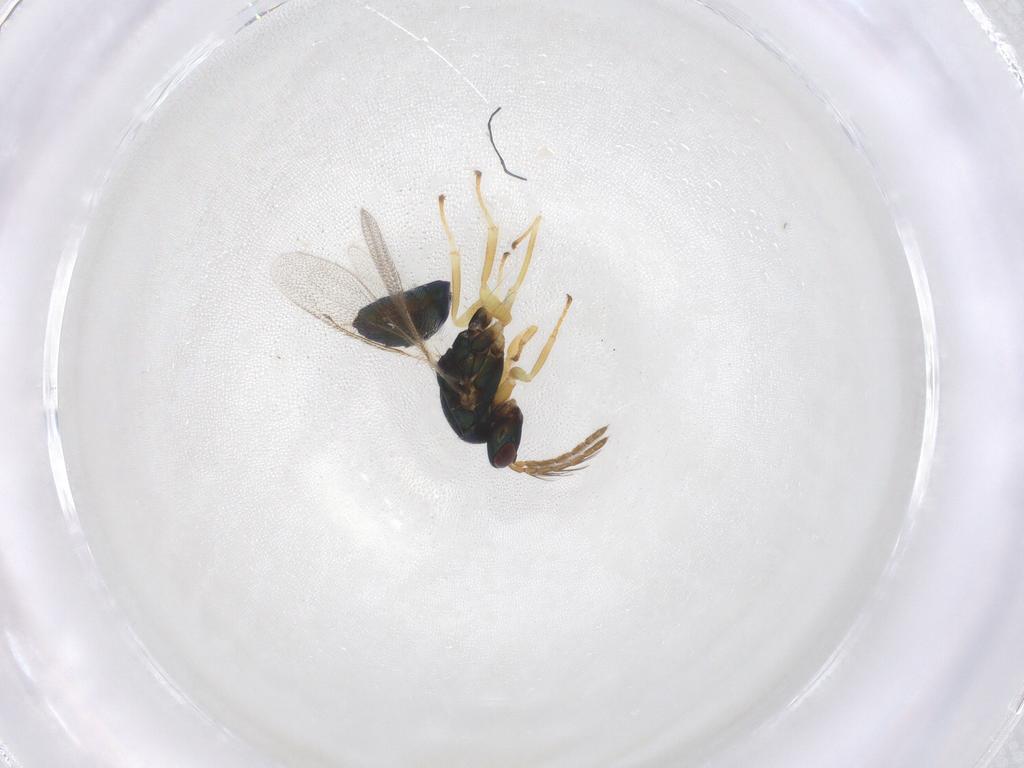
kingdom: Animalia
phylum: Arthropoda
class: Insecta
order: Hymenoptera
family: Eulophidae
